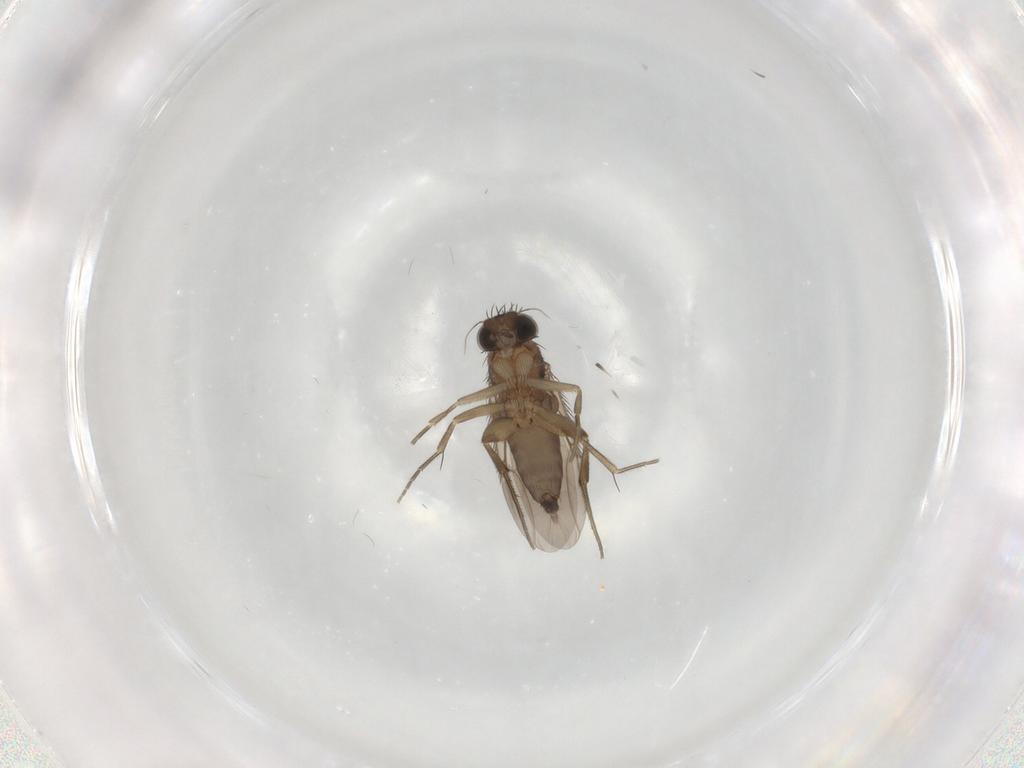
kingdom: Animalia
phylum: Arthropoda
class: Insecta
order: Diptera
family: Phoridae
